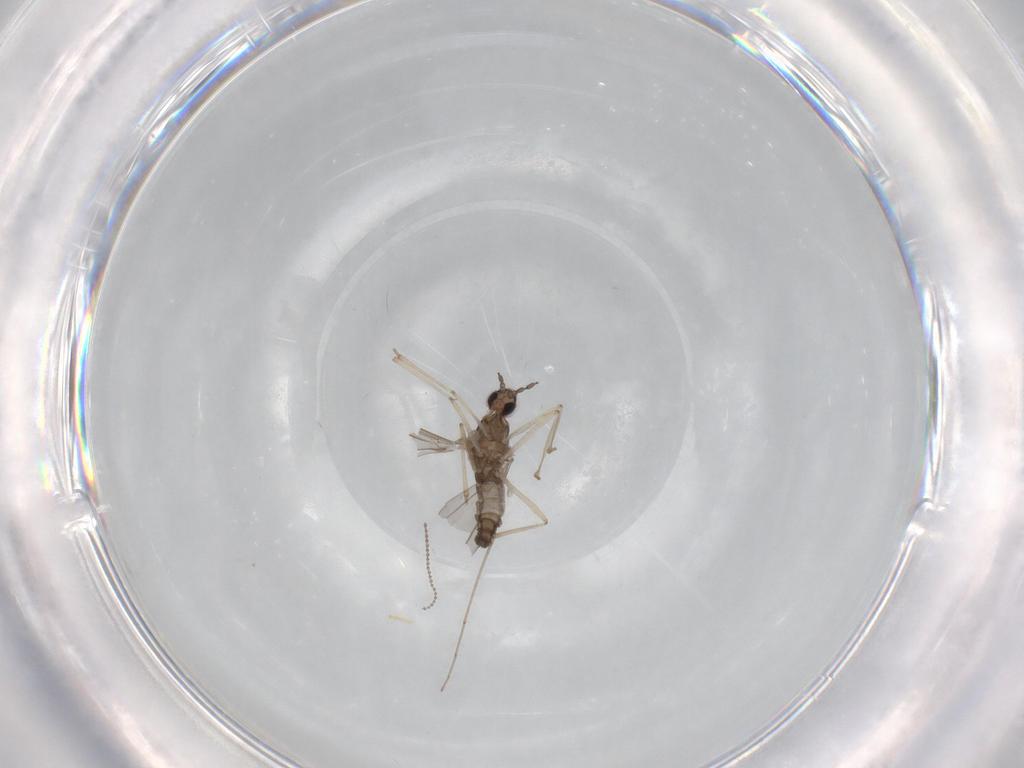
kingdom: Animalia
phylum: Arthropoda
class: Insecta
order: Diptera
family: Cecidomyiidae
